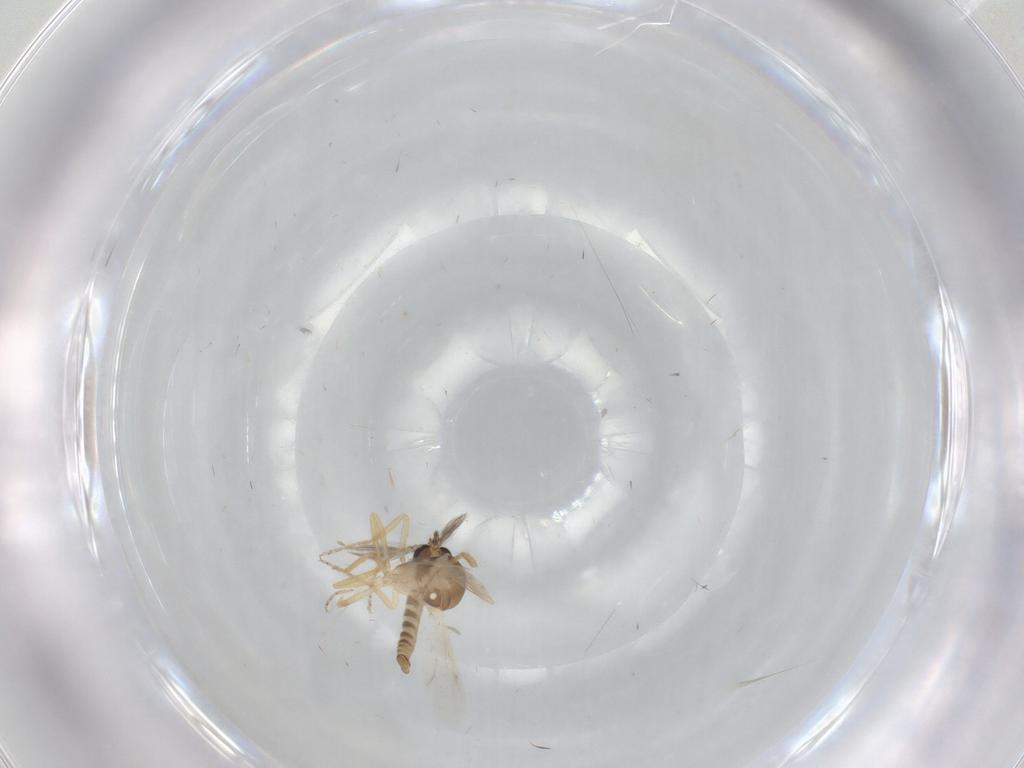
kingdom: Animalia
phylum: Arthropoda
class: Insecta
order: Diptera
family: Ceratopogonidae
